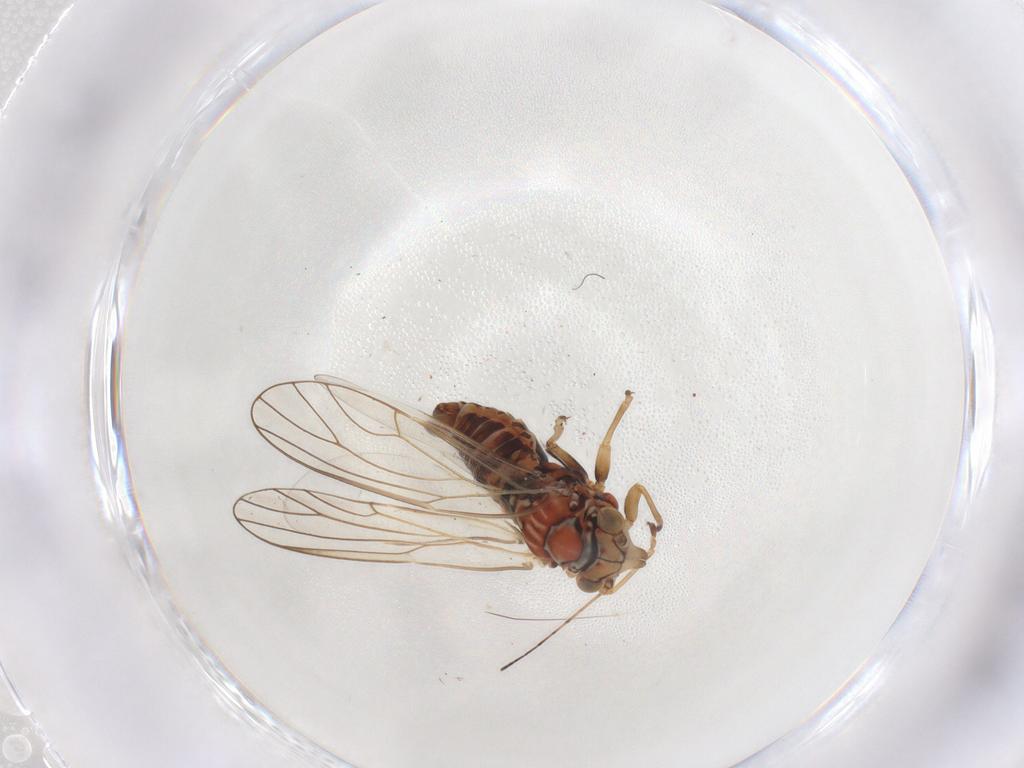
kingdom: Animalia
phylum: Arthropoda
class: Insecta
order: Hemiptera
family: Psyllidae
